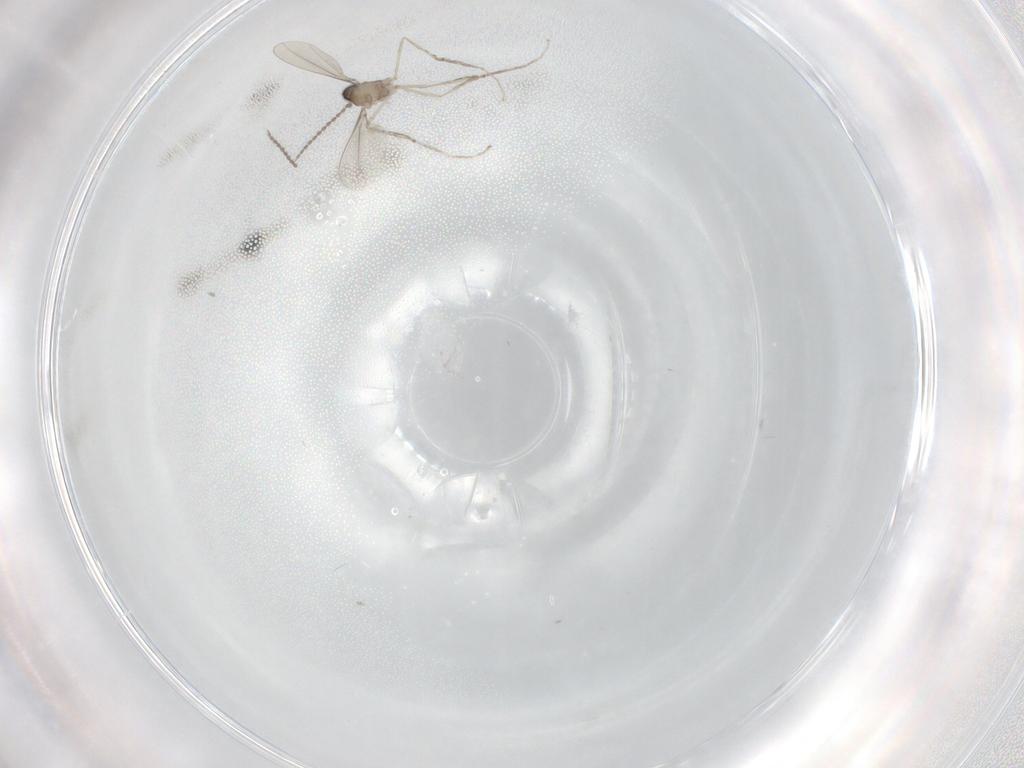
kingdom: Animalia
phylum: Arthropoda
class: Insecta
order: Diptera
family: Cecidomyiidae
